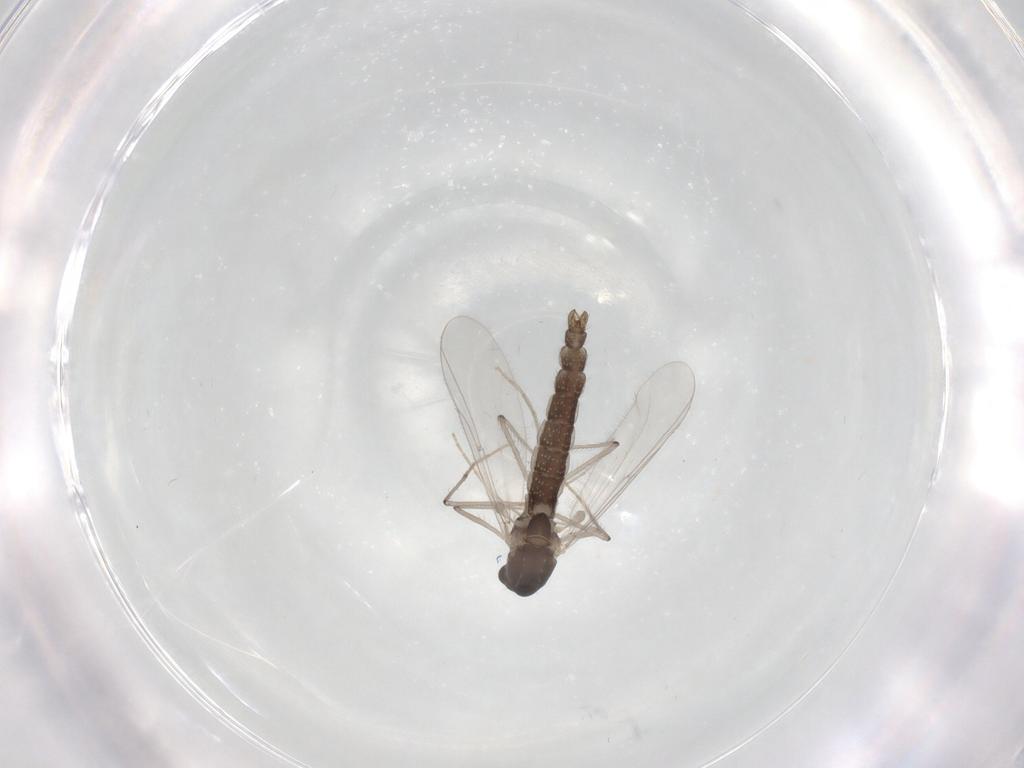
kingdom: Animalia
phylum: Arthropoda
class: Insecta
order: Diptera
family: Chironomidae
